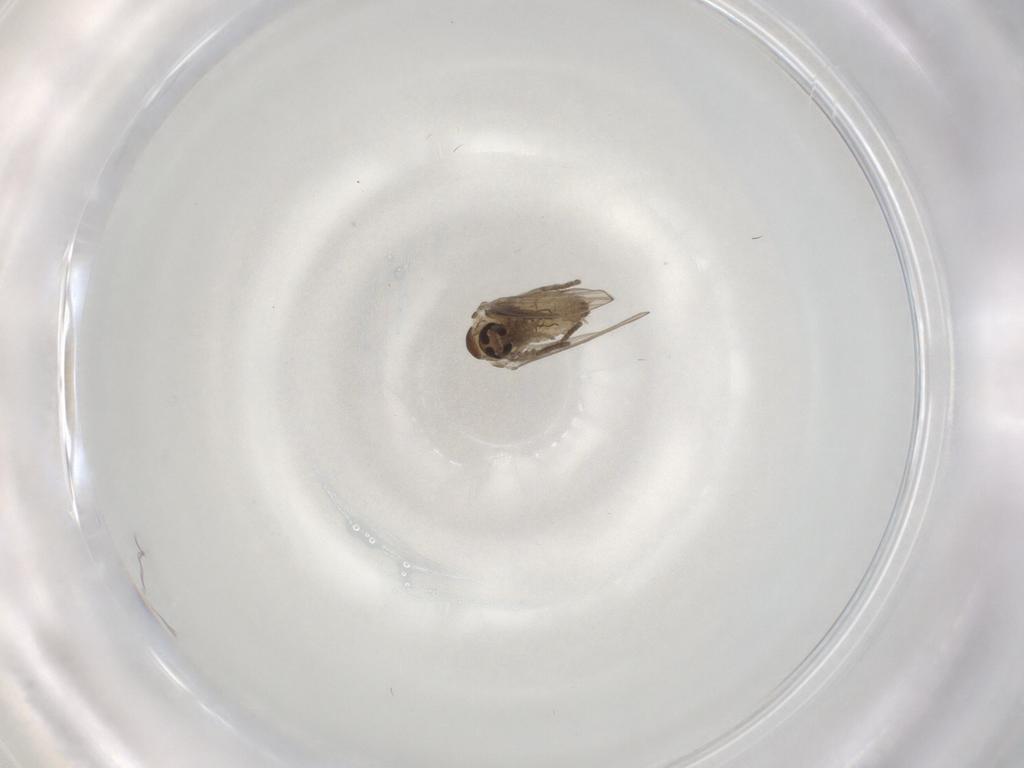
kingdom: Animalia
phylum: Arthropoda
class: Insecta
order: Diptera
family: Psychodidae
